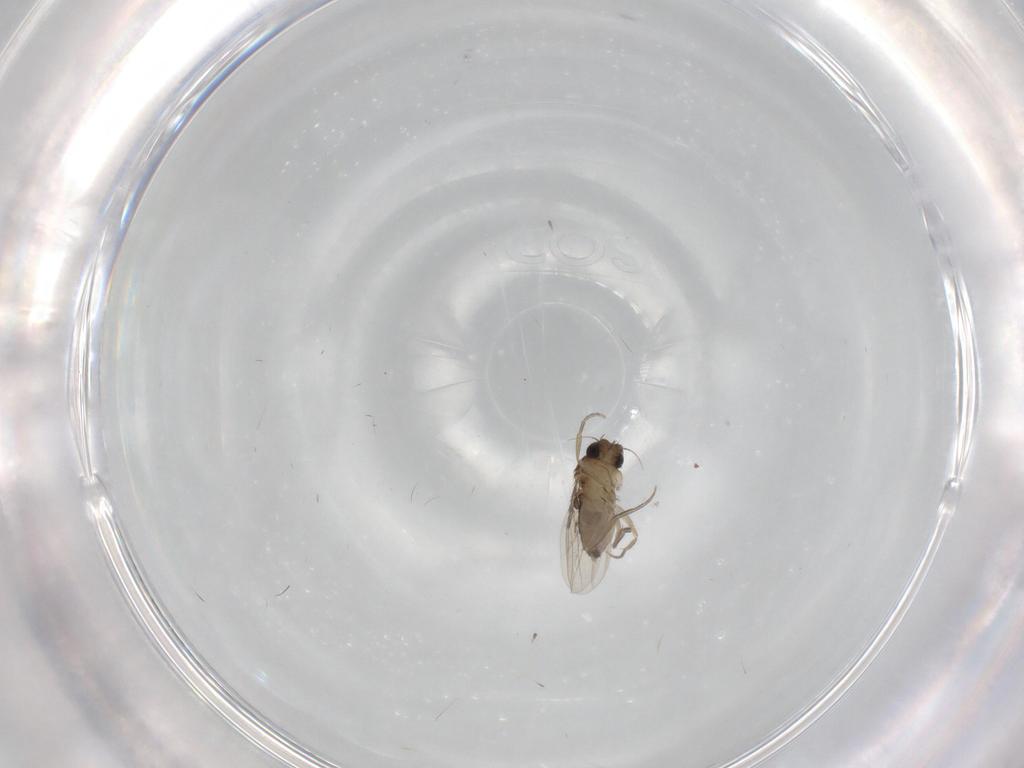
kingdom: Animalia
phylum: Arthropoda
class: Insecta
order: Diptera
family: Phoridae
